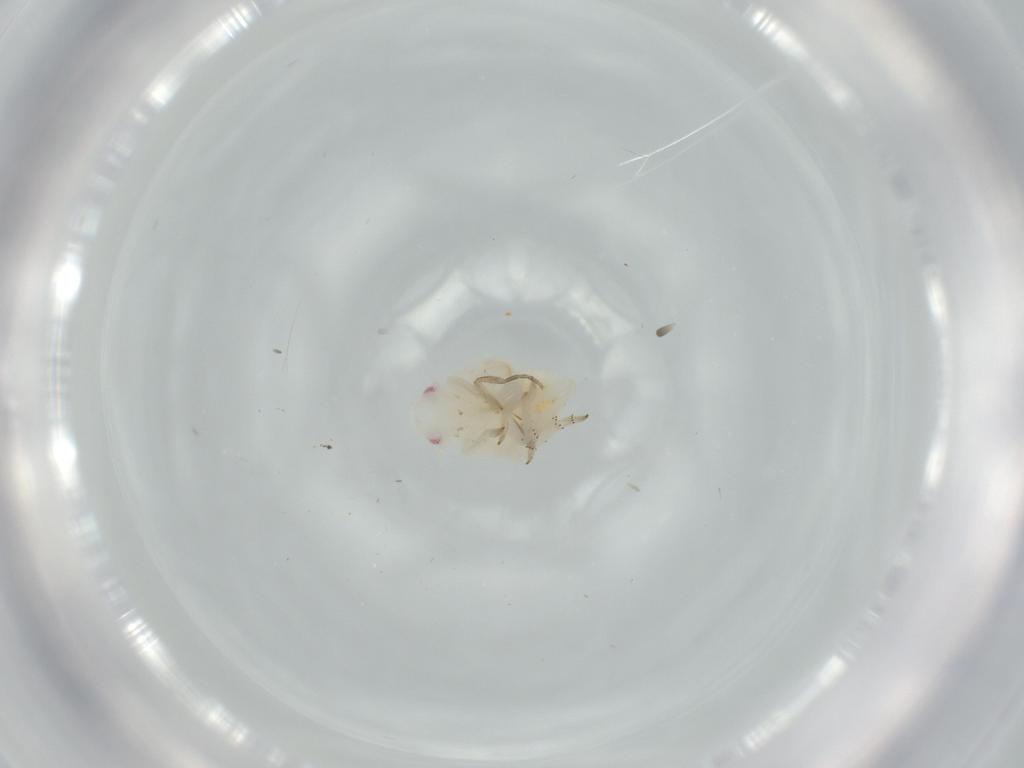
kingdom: Animalia
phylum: Arthropoda
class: Insecta
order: Hemiptera
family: Flatidae
